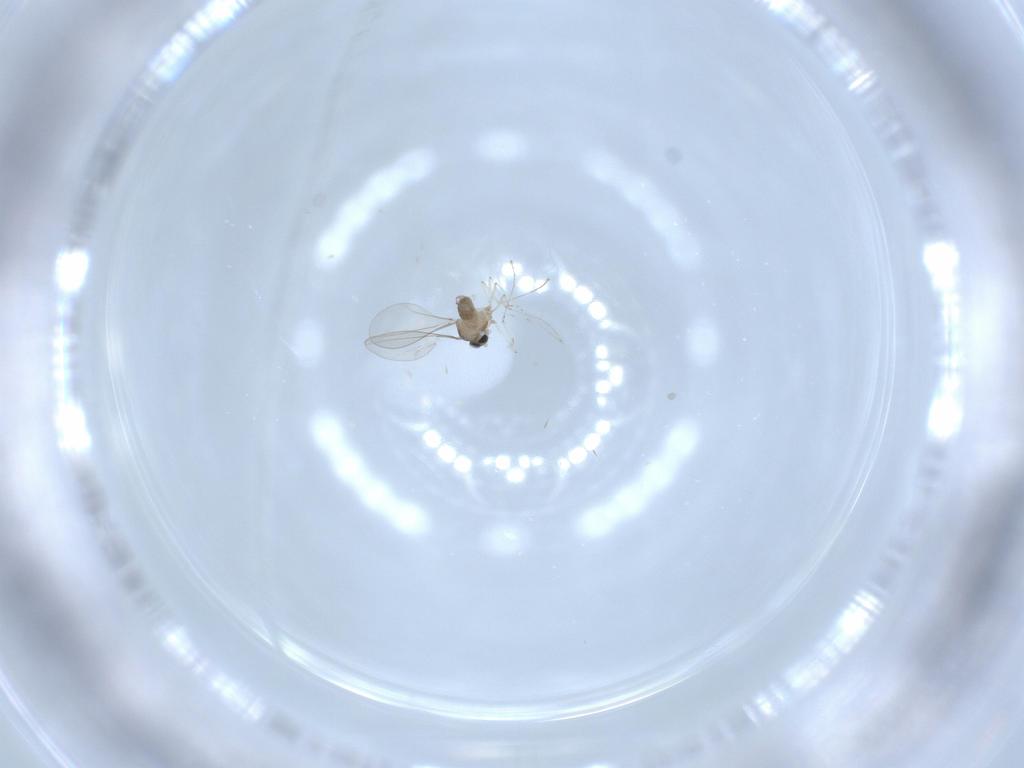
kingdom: Animalia
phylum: Arthropoda
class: Insecta
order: Diptera
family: Cecidomyiidae
